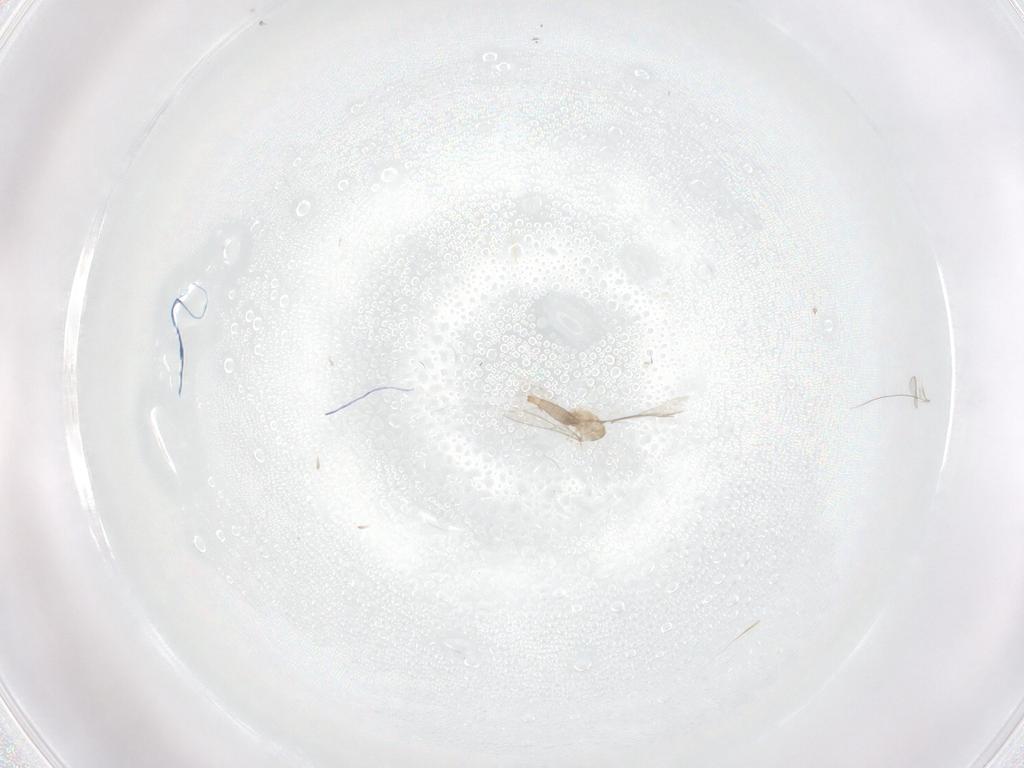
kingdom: Animalia
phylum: Arthropoda
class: Insecta
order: Diptera
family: Cecidomyiidae
